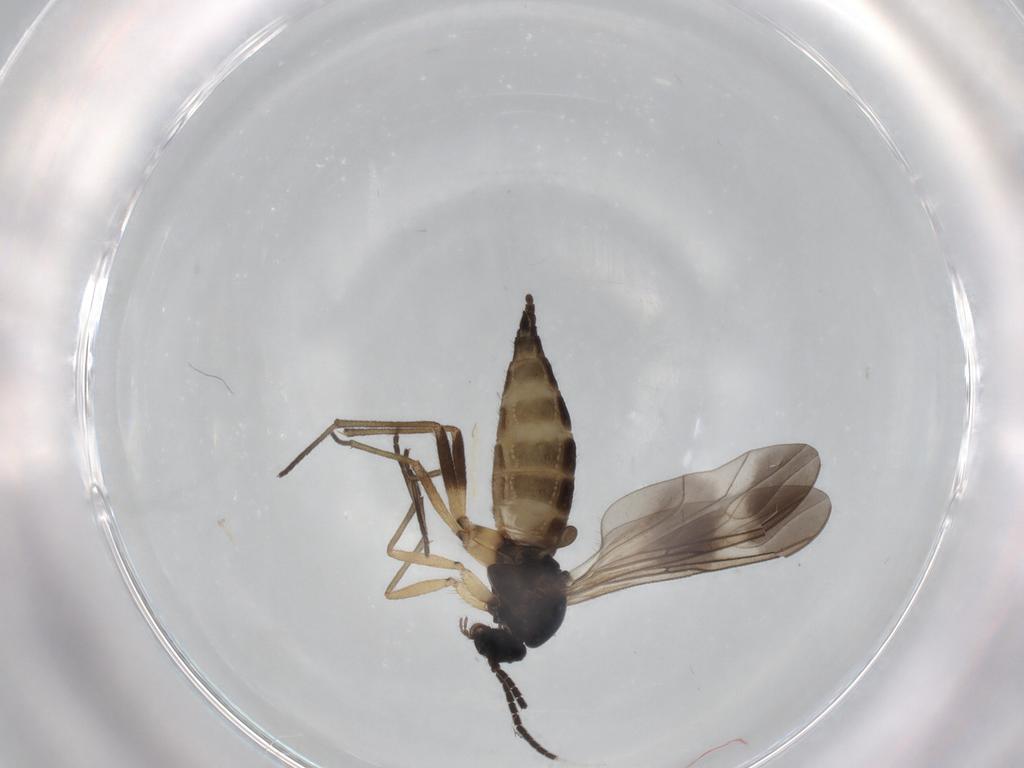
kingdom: Animalia
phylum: Arthropoda
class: Insecta
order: Diptera
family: Sciaridae
